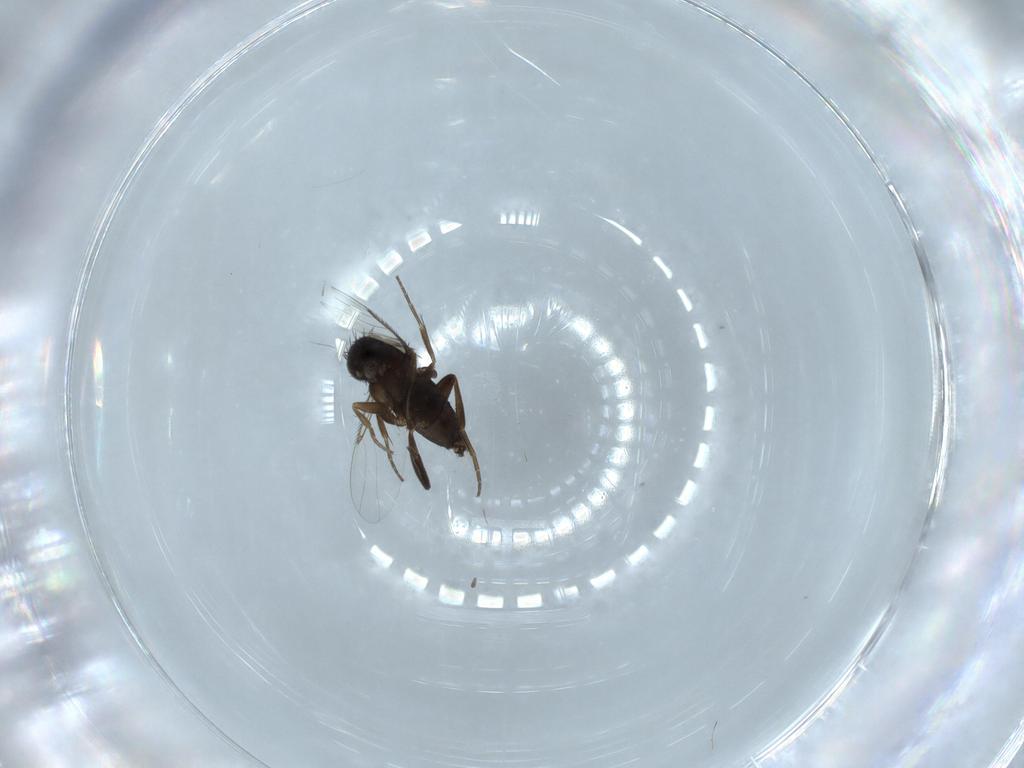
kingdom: Animalia
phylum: Arthropoda
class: Insecta
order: Diptera
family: Phoridae
